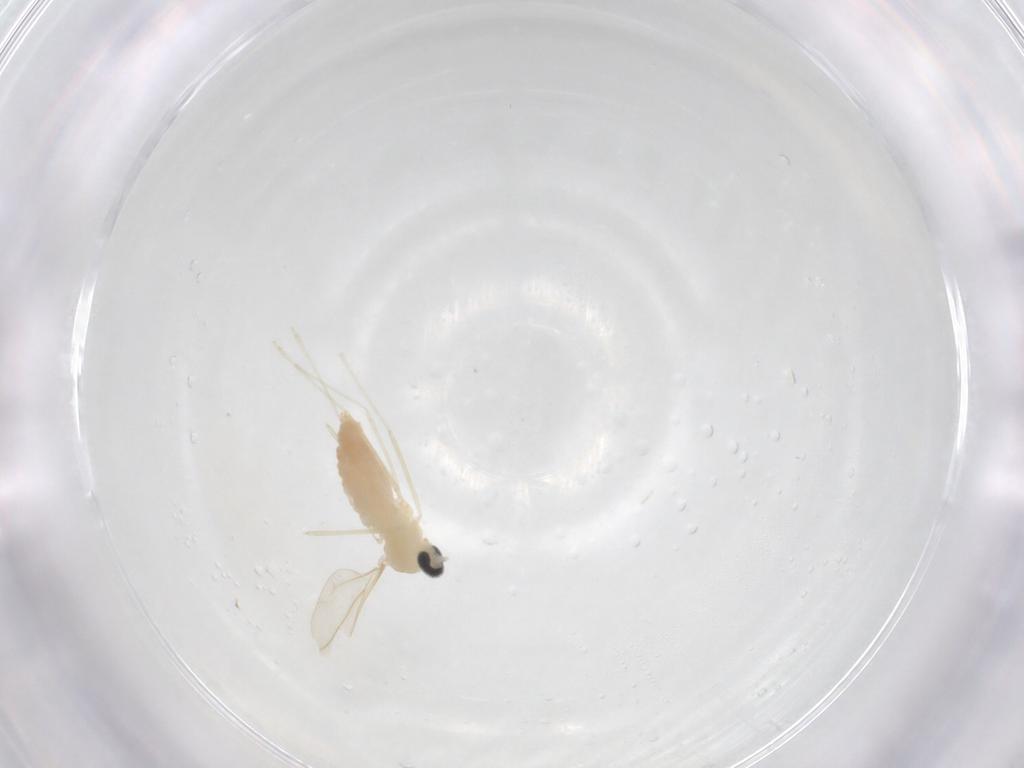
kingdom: Animalia
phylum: Arthropoda
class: Insecta
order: Diptera
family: Cecidomyiidae
